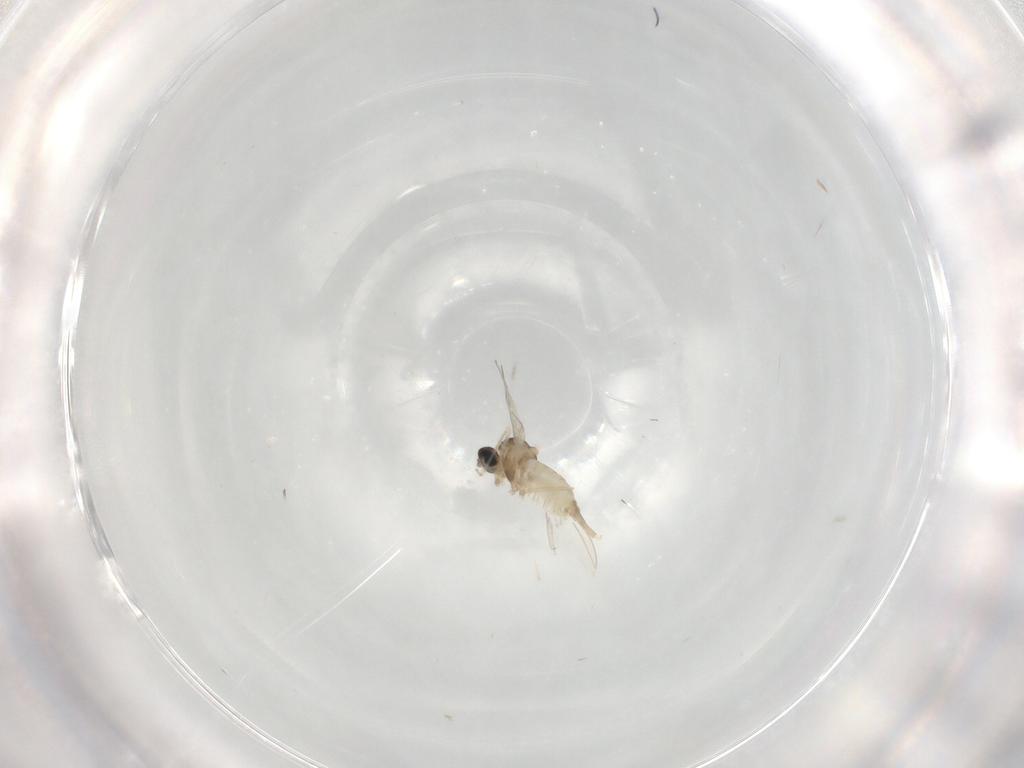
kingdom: Animalia
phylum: Arthropoda
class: Insecta
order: Diptera
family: Cecidomyiidae
